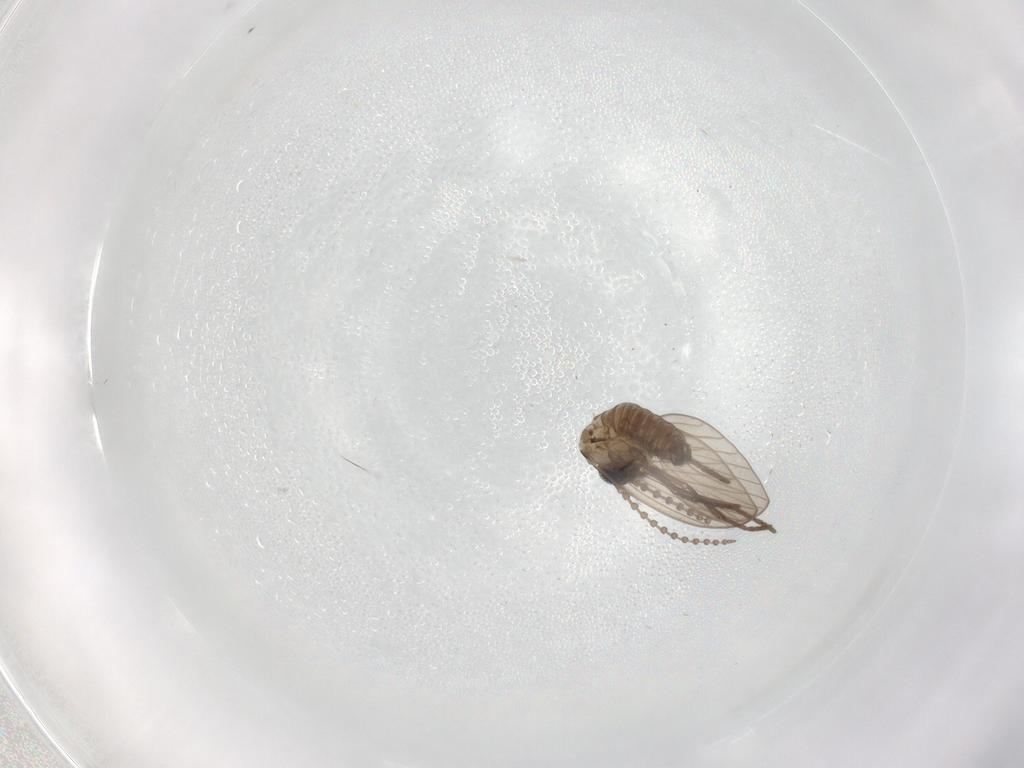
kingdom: Animalia
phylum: Arthropoda
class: Insecta
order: Diptera
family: Psychodidae
